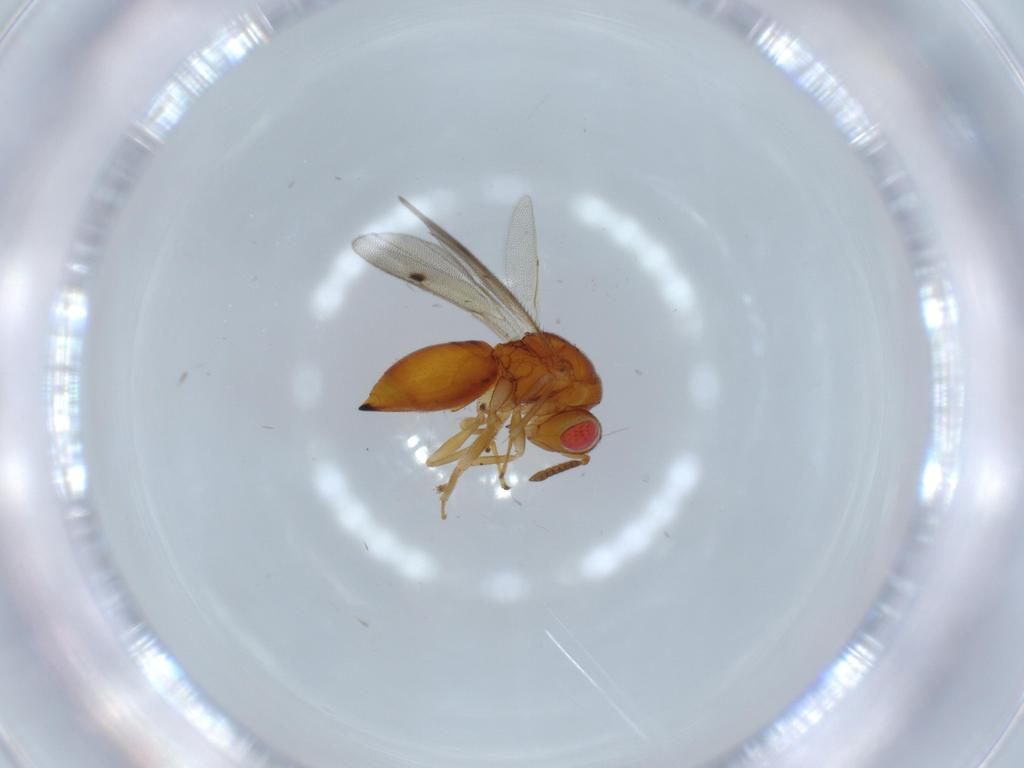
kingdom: Animalia
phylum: Arthropoda
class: Insecta
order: Hymenoptera
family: Eurytomidae
